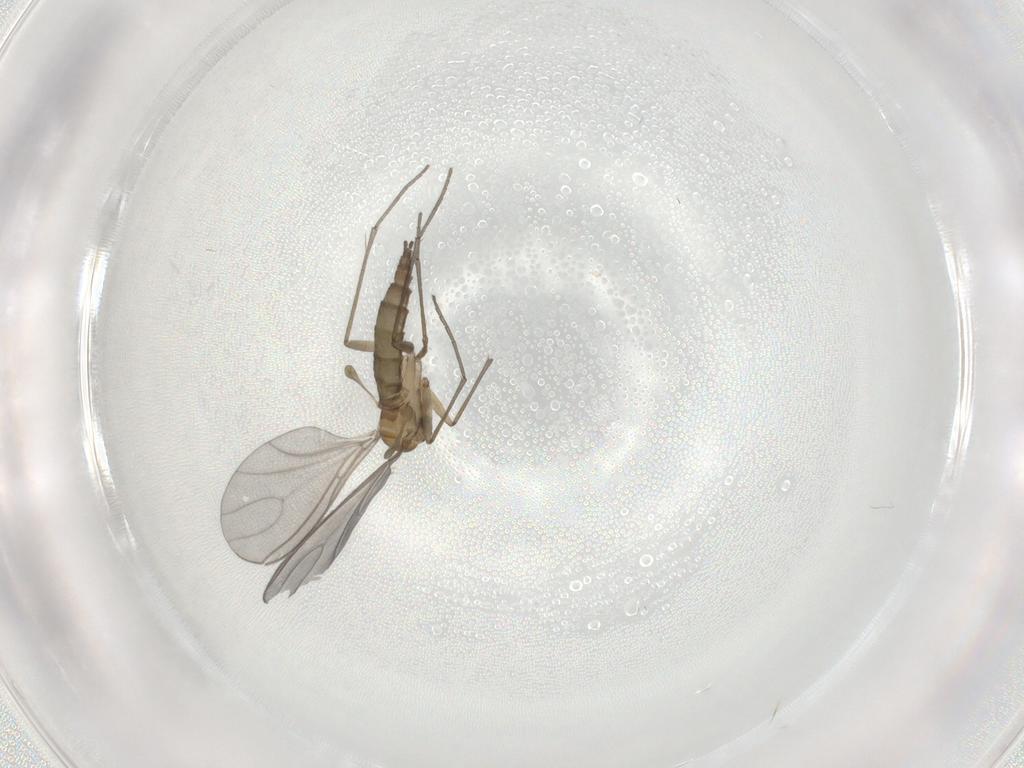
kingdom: Animalia
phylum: Arthropoda
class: Insecta
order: Diptera
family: Sciaridae
